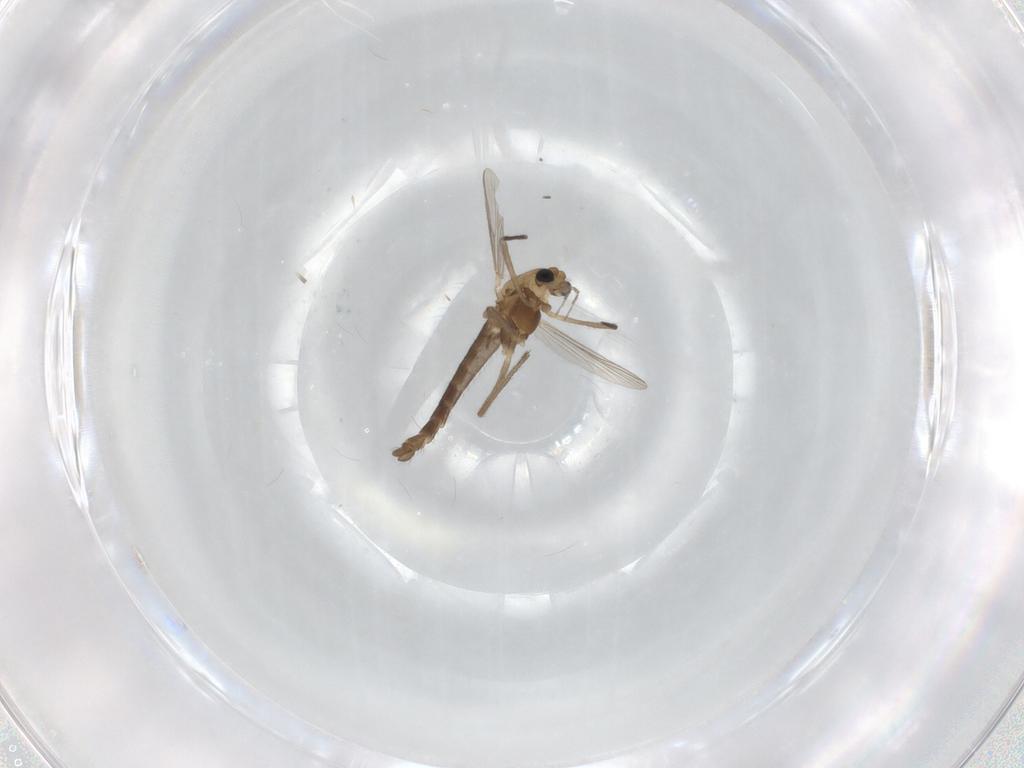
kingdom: Animalia
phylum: Arthropoda
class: Insecta
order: Diptera
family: Chironomidae
